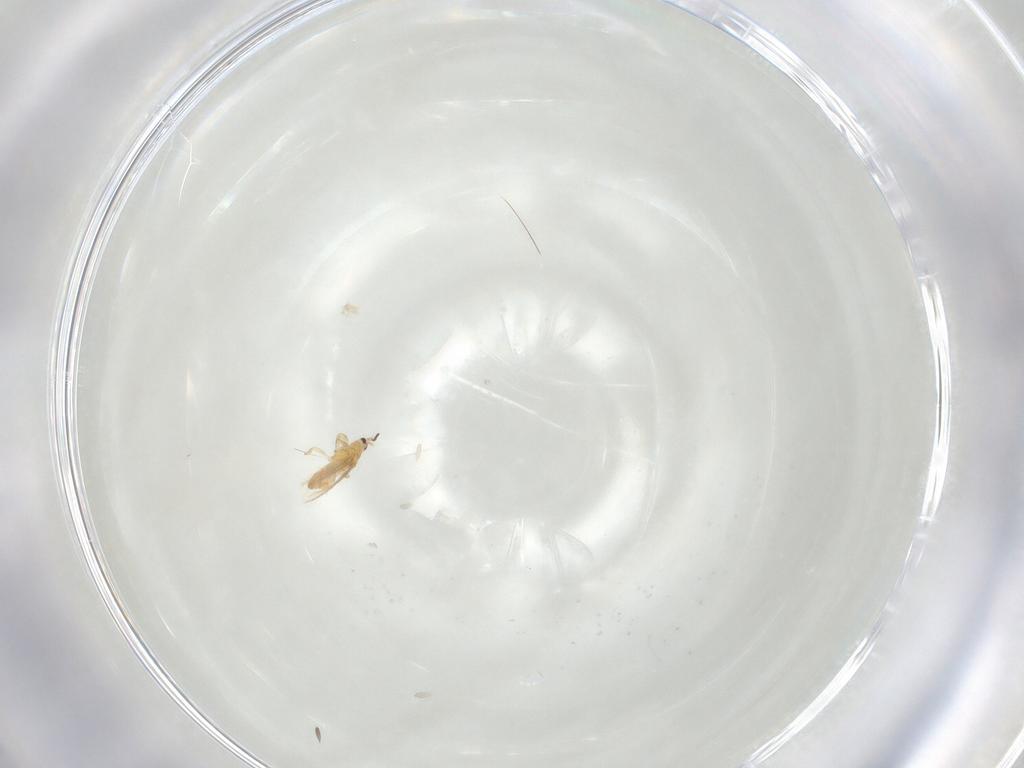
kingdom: Animalia
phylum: Arthropoda
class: Insecta
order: Thysanoptera
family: Melanthripidae
